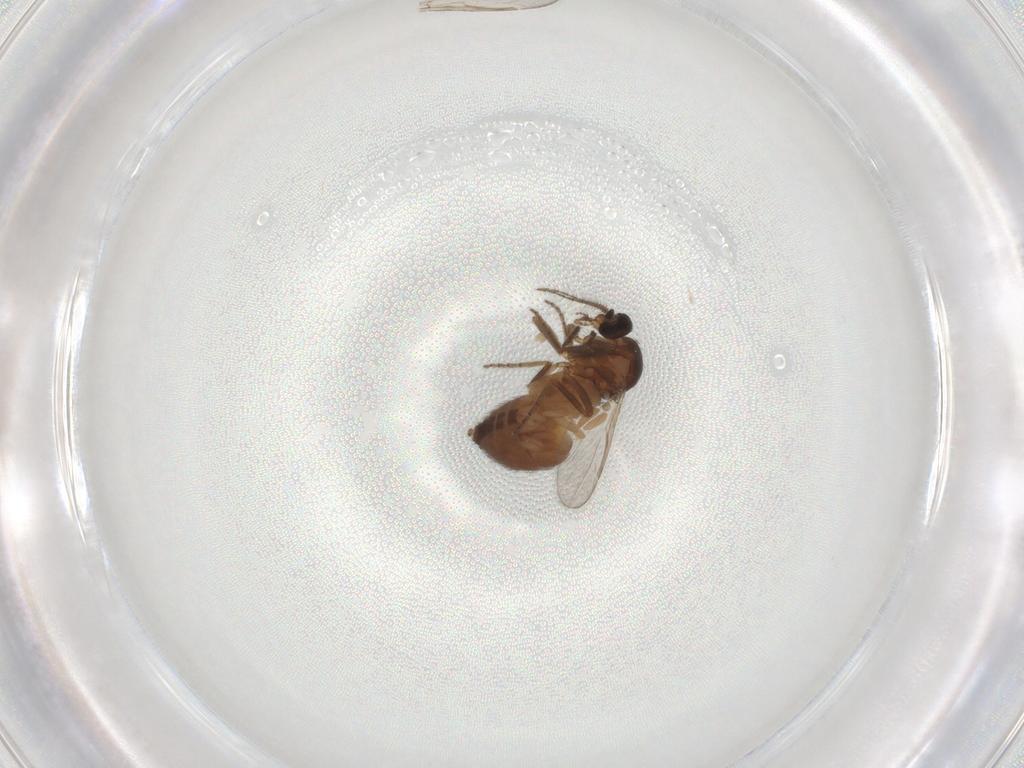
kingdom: Animalia
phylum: Arthropoda
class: Insecta
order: Diptera
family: Ceratopogonidae
